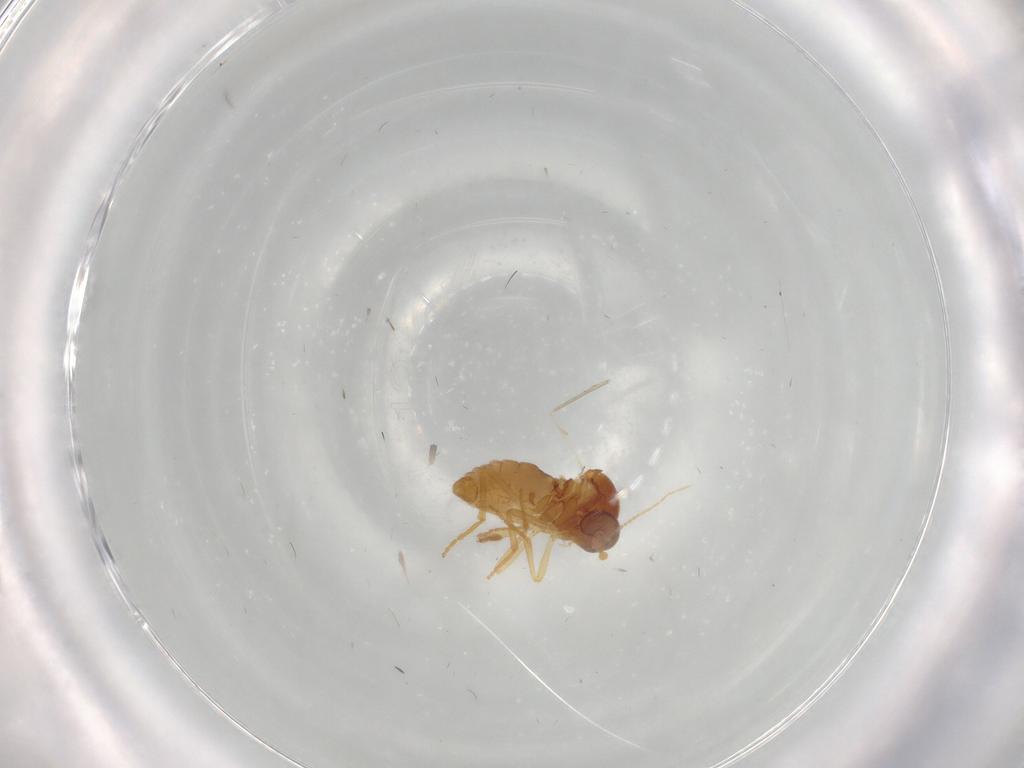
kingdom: Animalia
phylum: Arthropoda
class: Insecta
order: Diptera
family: Ceratopogonidae
